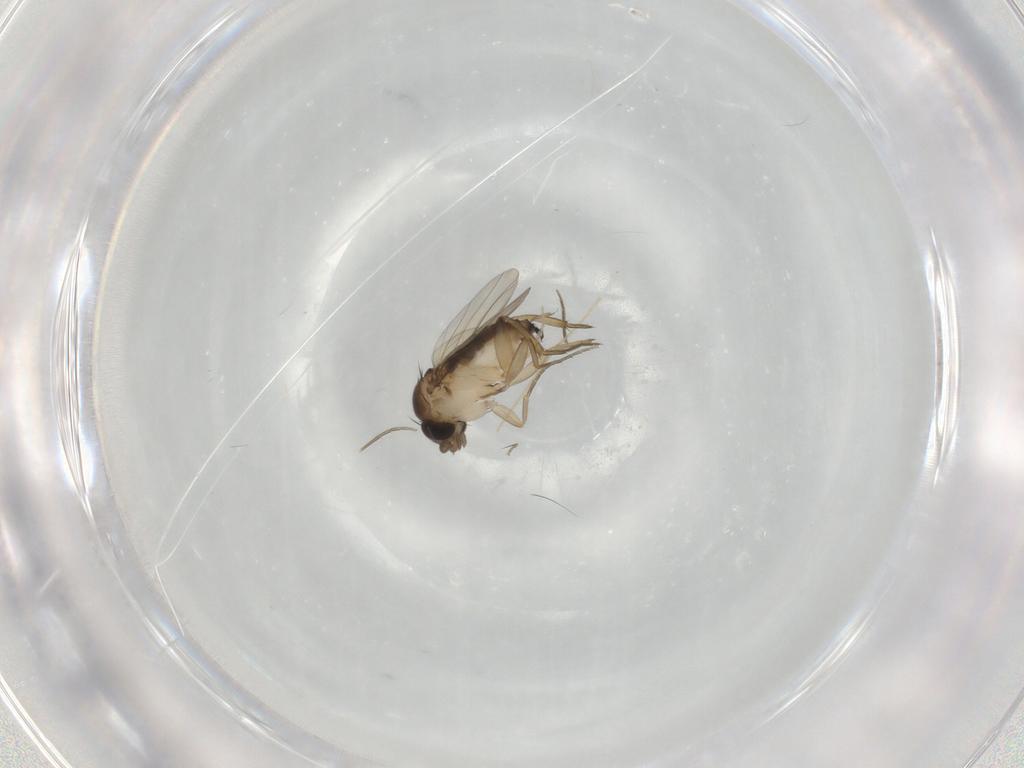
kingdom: Animalia
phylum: Arthropoda
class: Insecta
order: Diptera
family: Phoridae
